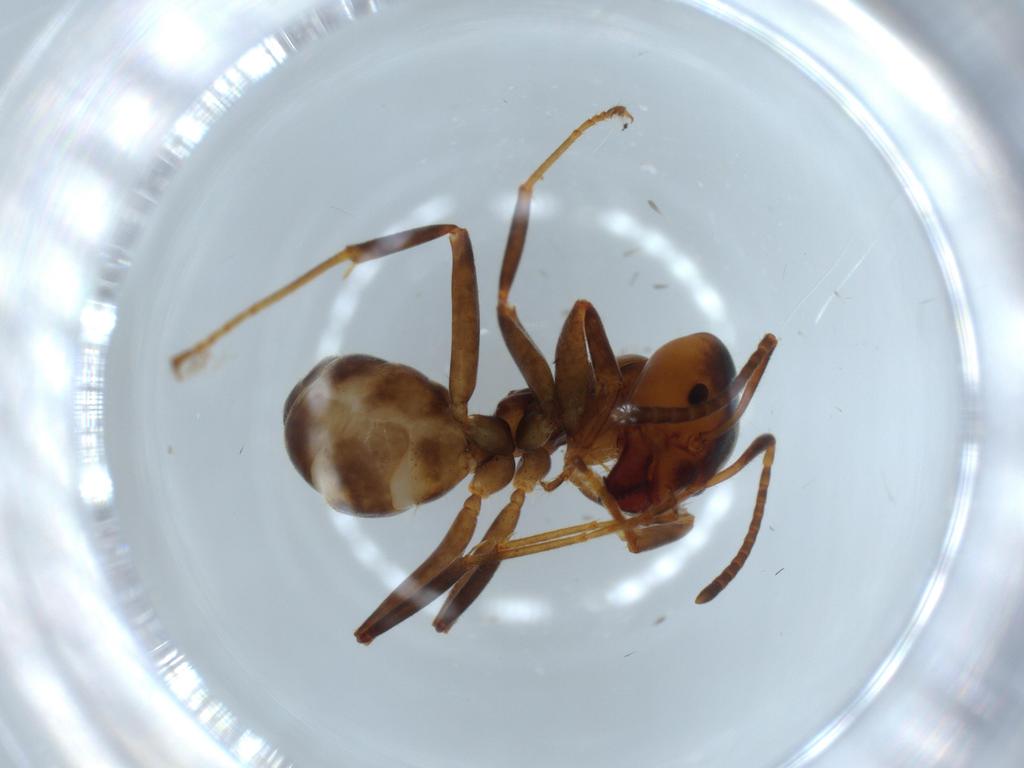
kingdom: Animalia
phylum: Arthropoda
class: Insecta
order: Hymenoptera
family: Formicidae
